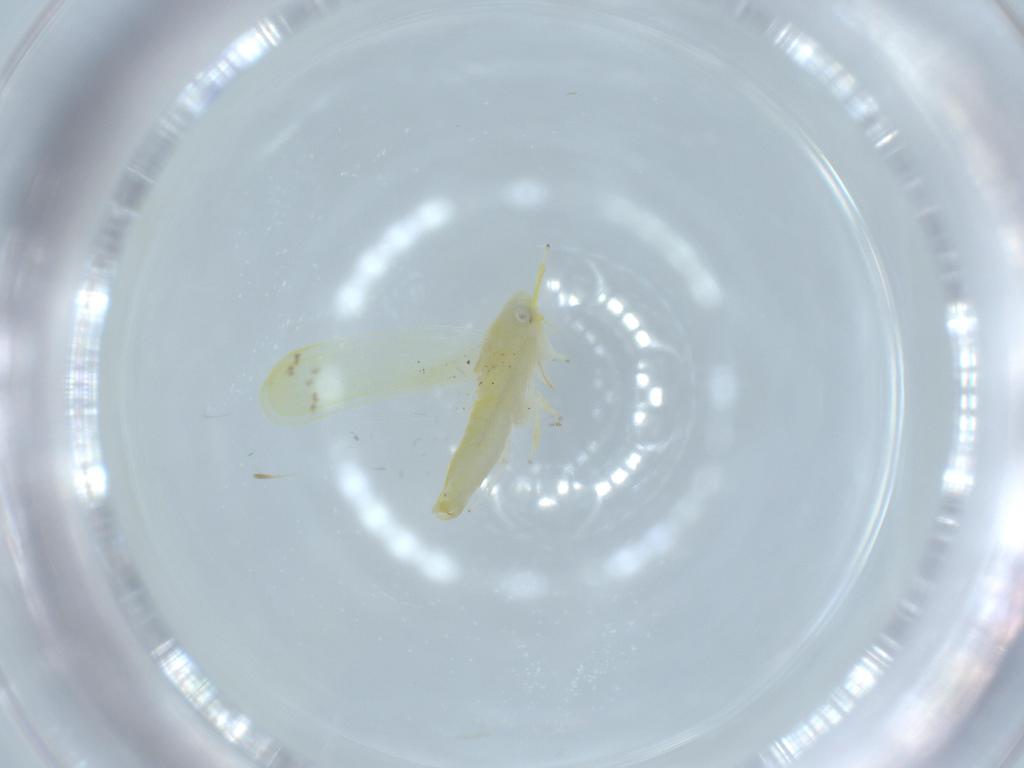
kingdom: Animalia
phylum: Arthropoda
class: Insecta
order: Hemiptera
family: Cicadellidae
